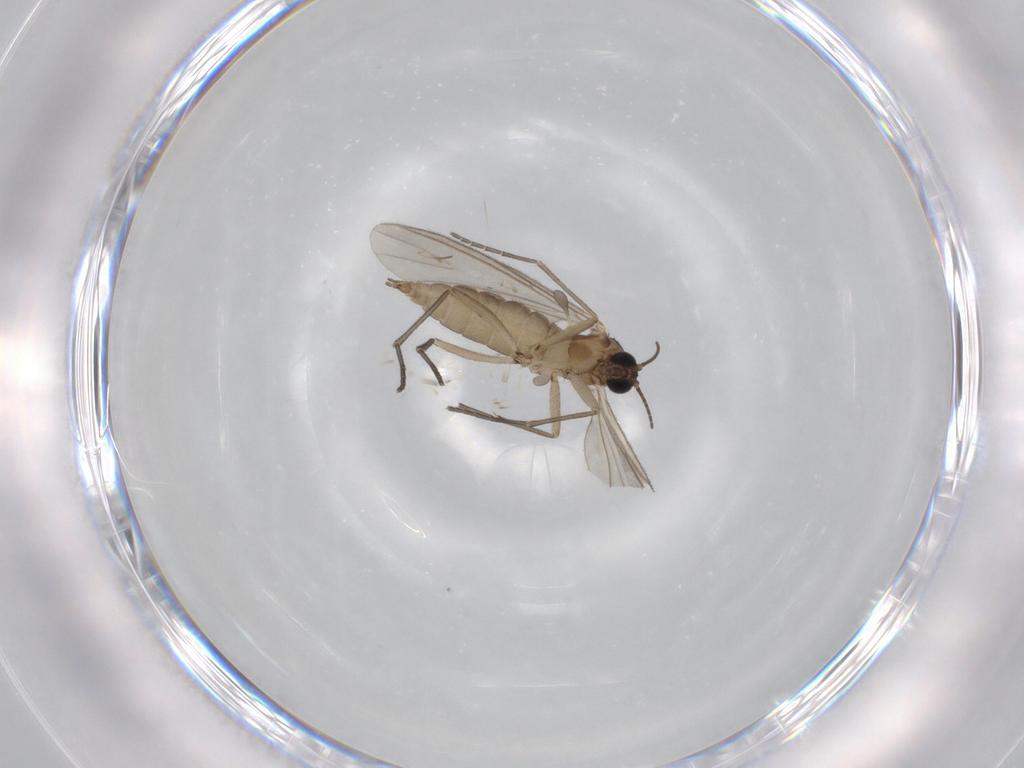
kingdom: Animalia
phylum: Arthropoda
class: Insecta
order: Diptera
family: Sciaridae
